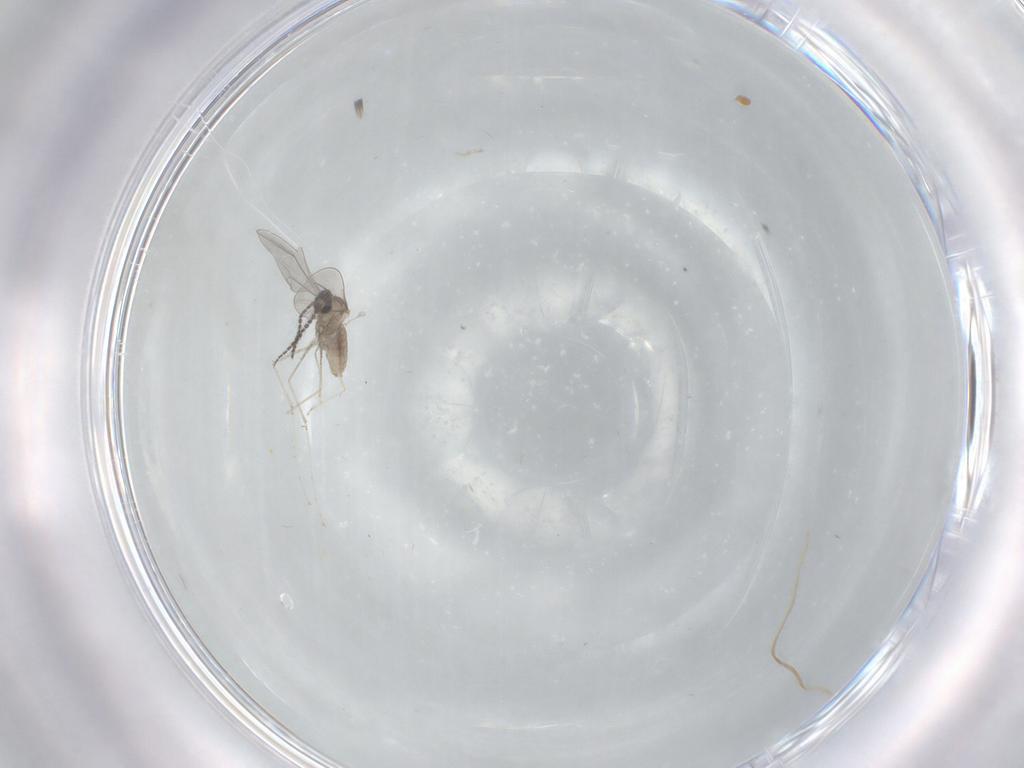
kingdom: Animalia
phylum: Arthropoda
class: Insecta
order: Diptera
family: Cecidomyiidae
